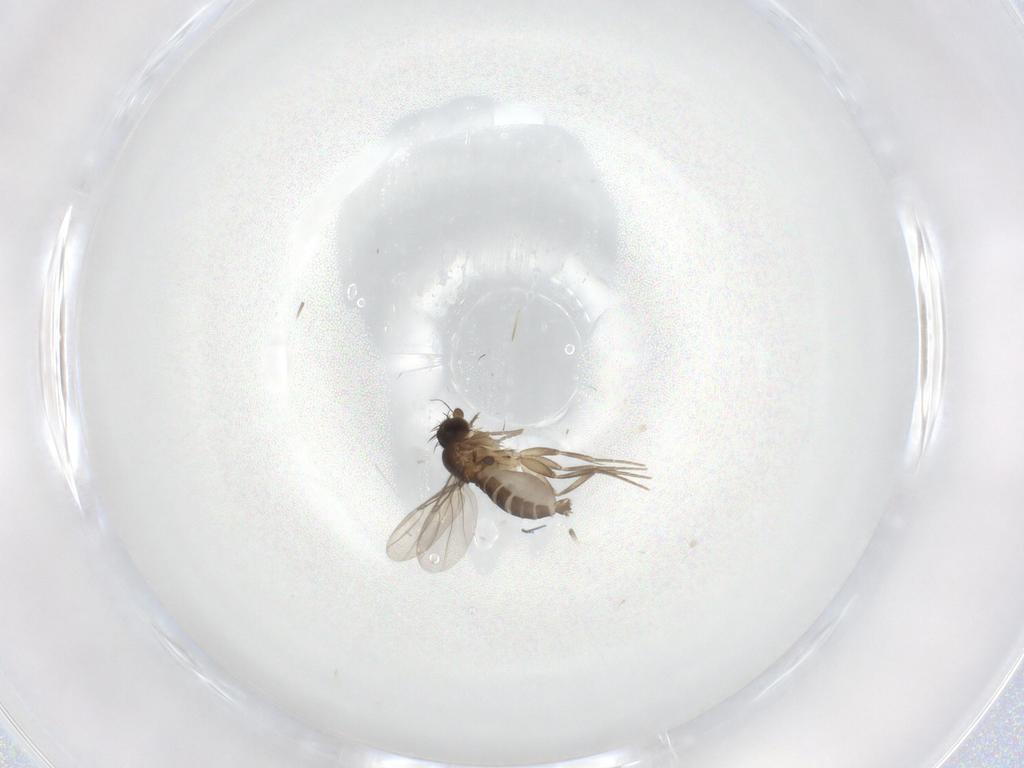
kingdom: Animalia
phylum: Arthropoda
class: Insecta
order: Diptera
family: Phoridae
